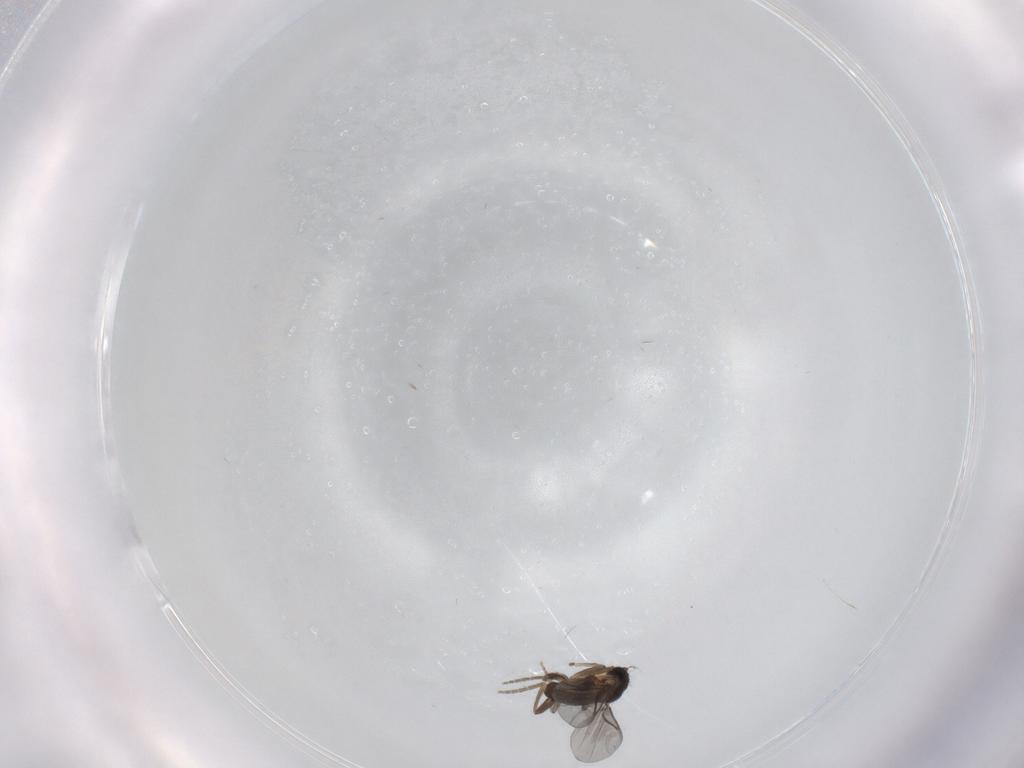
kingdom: Animalia
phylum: Arthropoda
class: Insecta
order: Diptera
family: Chironomidae
